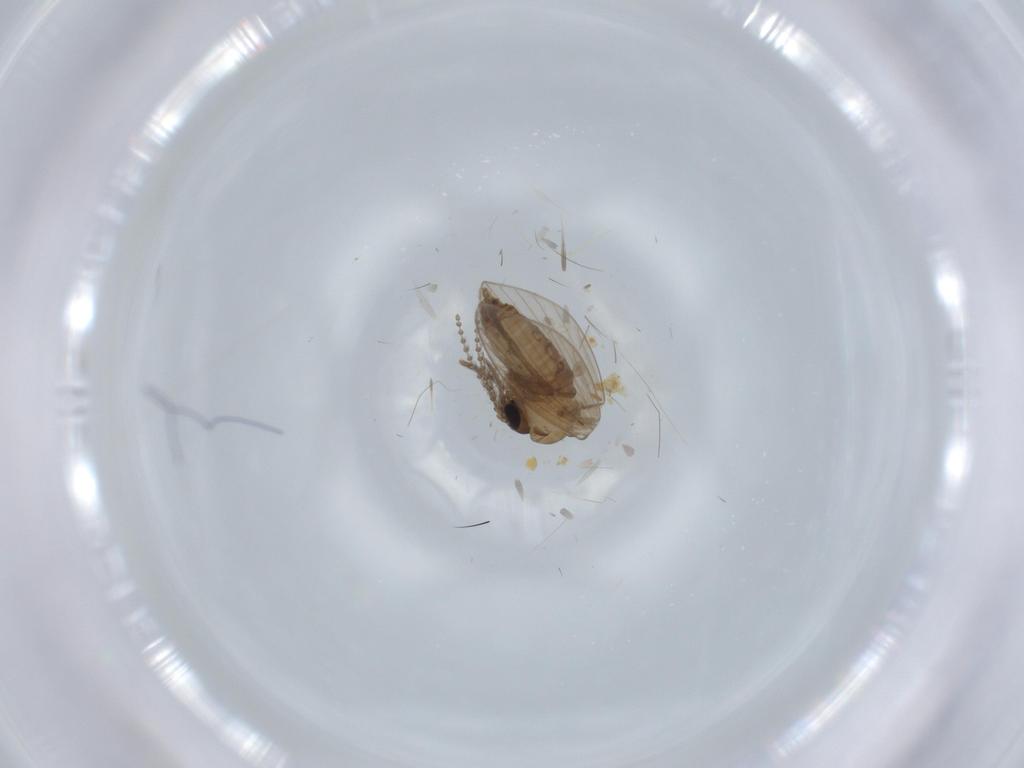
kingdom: Animalia
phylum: Arthropoda
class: Insecta
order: Diptera
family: Psychodidae
